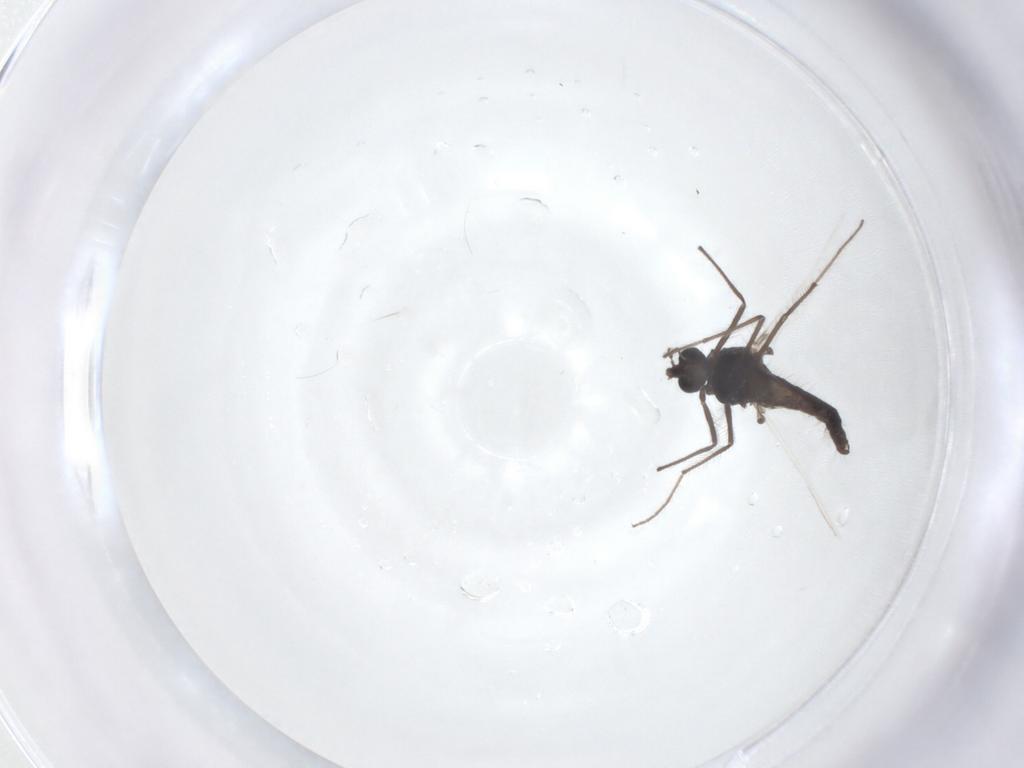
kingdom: Animalia
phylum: Arthropoda
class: Insecta
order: Diptera
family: Chironomidae
